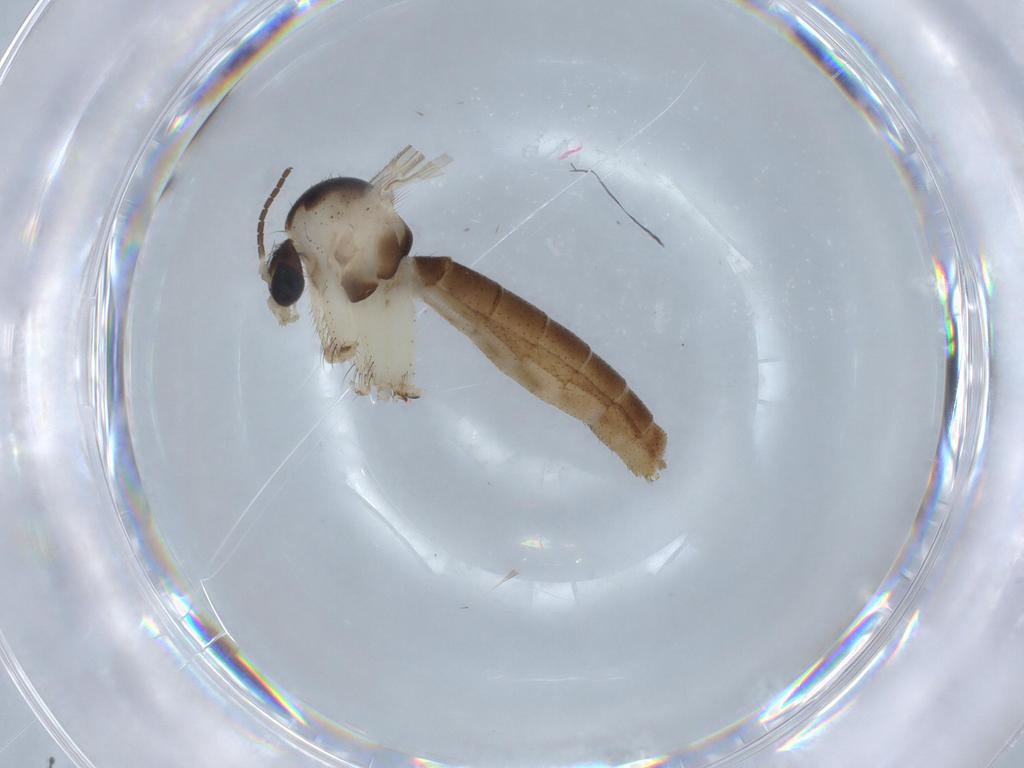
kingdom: Animalia
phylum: Arthropoda
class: Insecta
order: Diptera
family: Mycetophilidae
